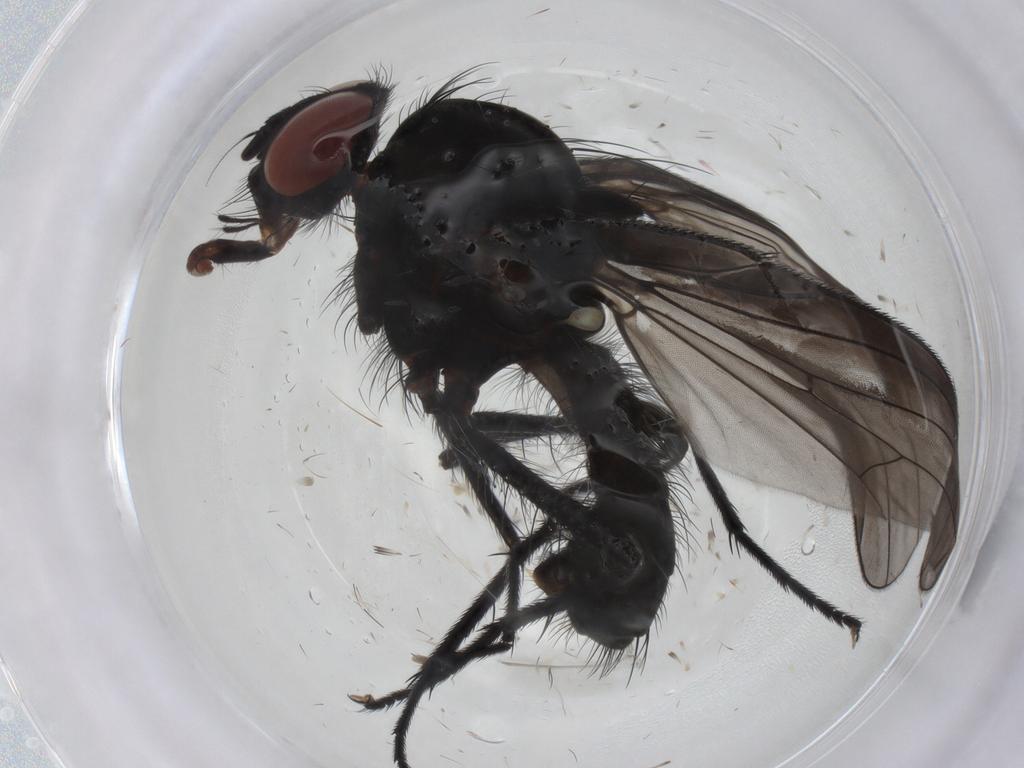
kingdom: Animalia
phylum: Arthropoda
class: Insecta
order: Diptera
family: Anthomyiidae
